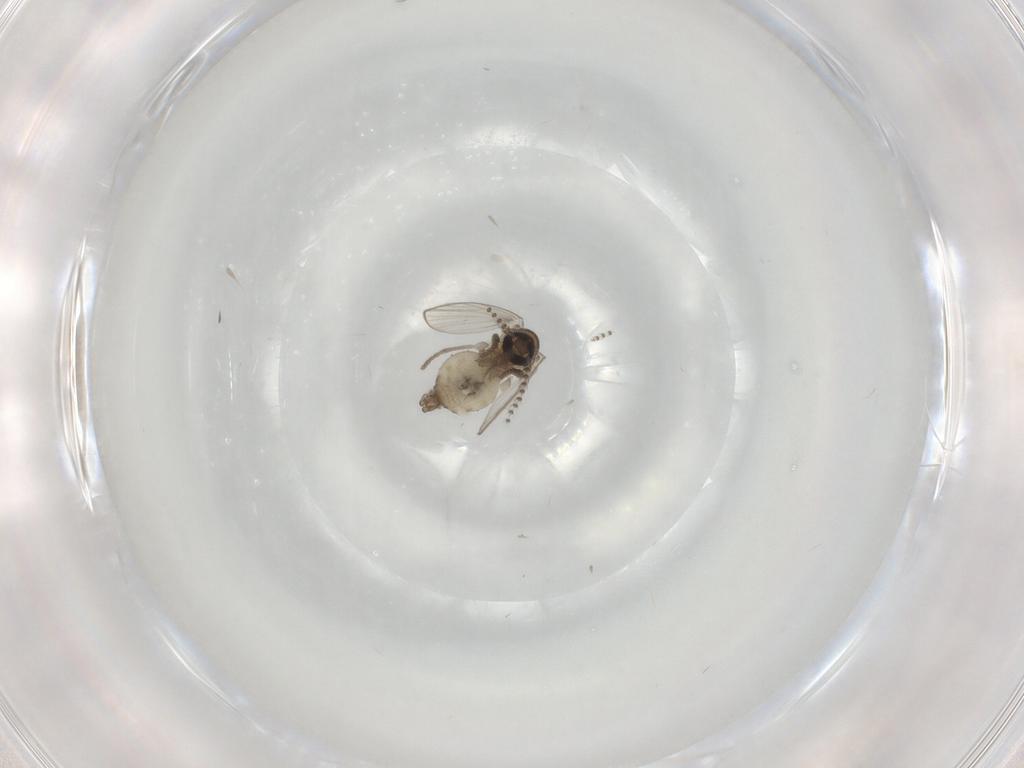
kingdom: Animalia
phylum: Arthropoda
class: Insecta
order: Diptera
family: Psychodidae
